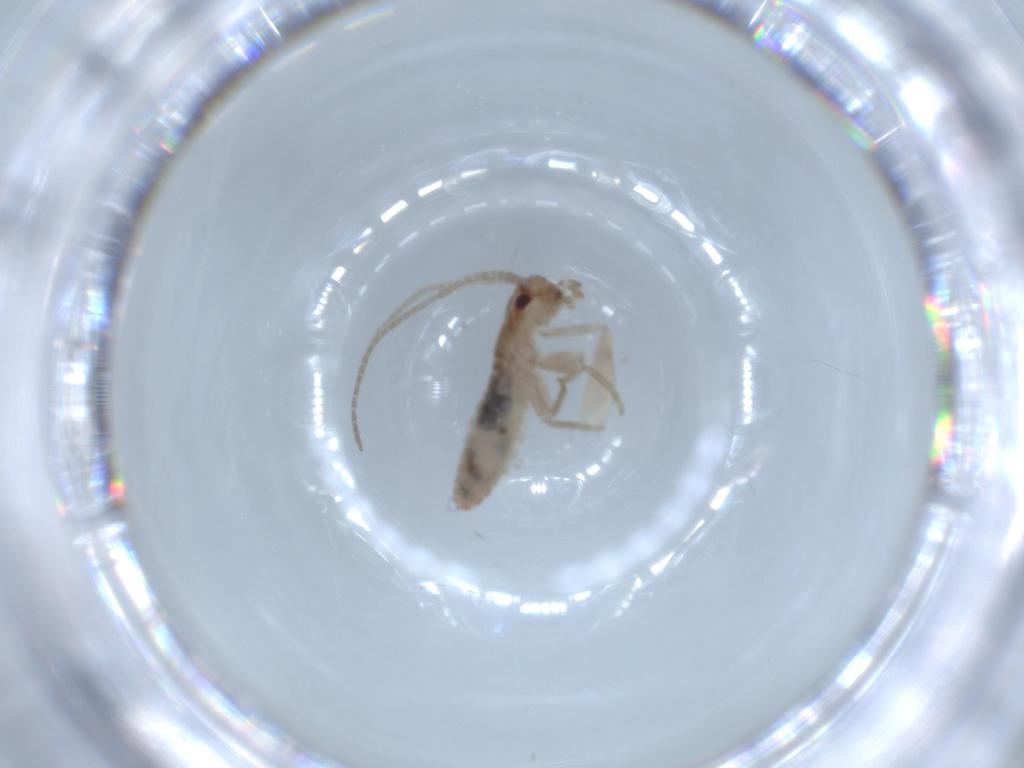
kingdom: Animalia
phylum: Arthropoda
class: Insecta
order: Orthoptera
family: Mogoplistidae
